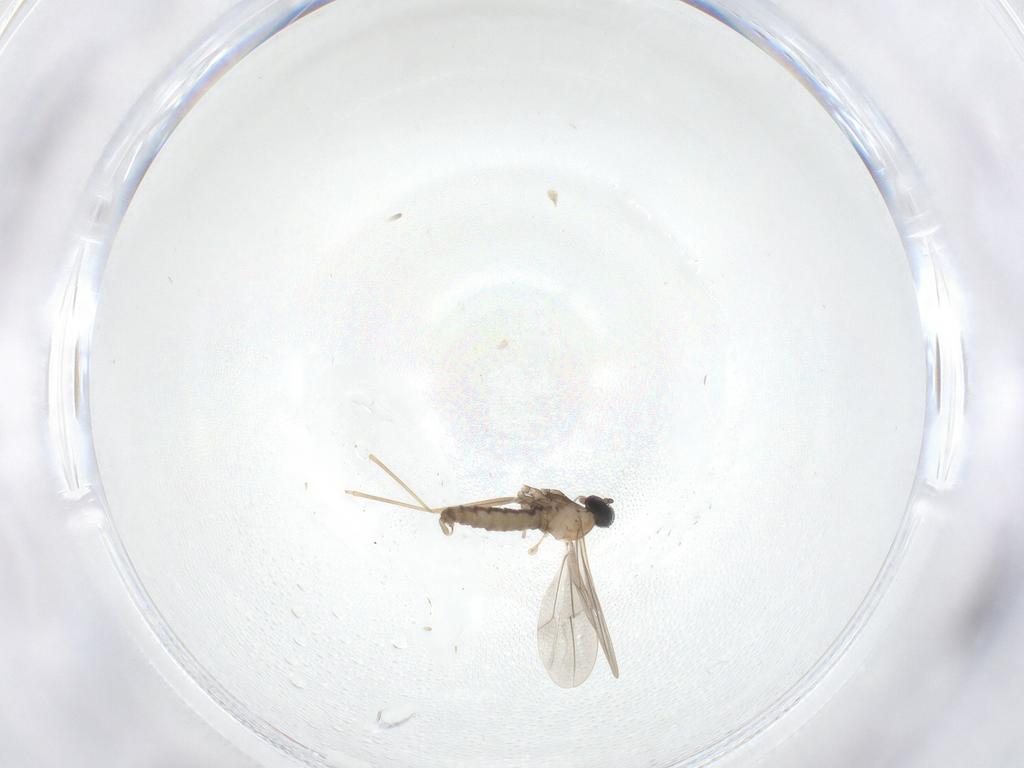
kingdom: Animalia
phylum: Arthropoda
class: Insecta
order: Diptera
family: Cecidomyiidae
